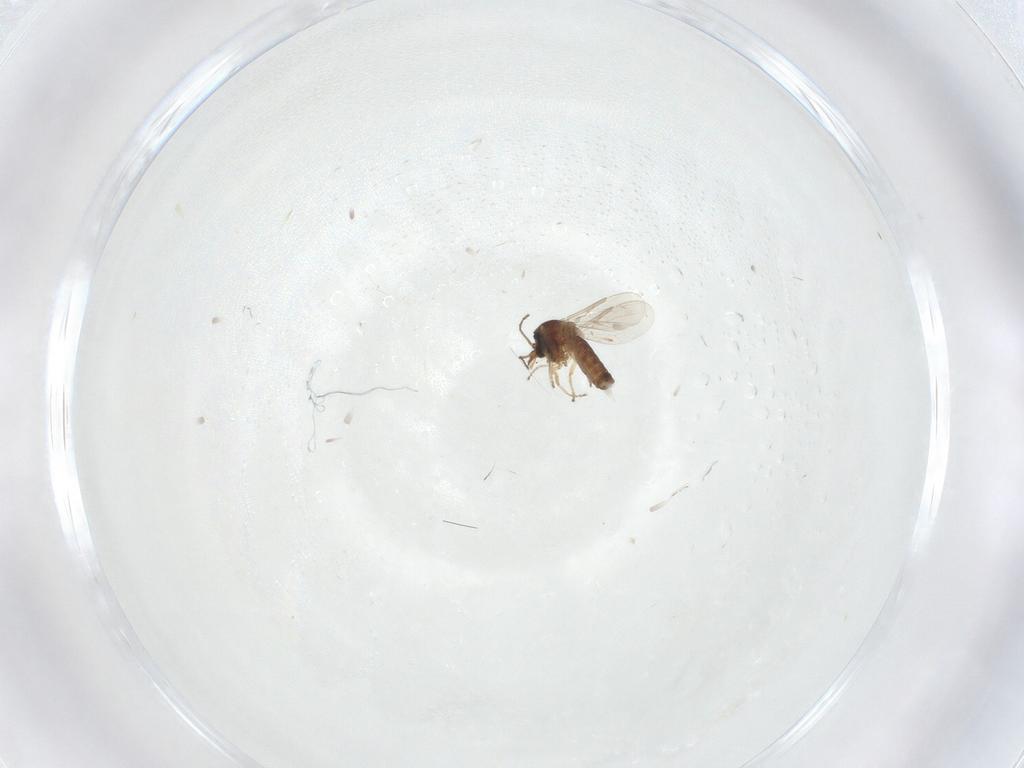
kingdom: Animalia
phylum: Arthropoda
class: Insecta
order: Diptera
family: Ceratopogonidae
